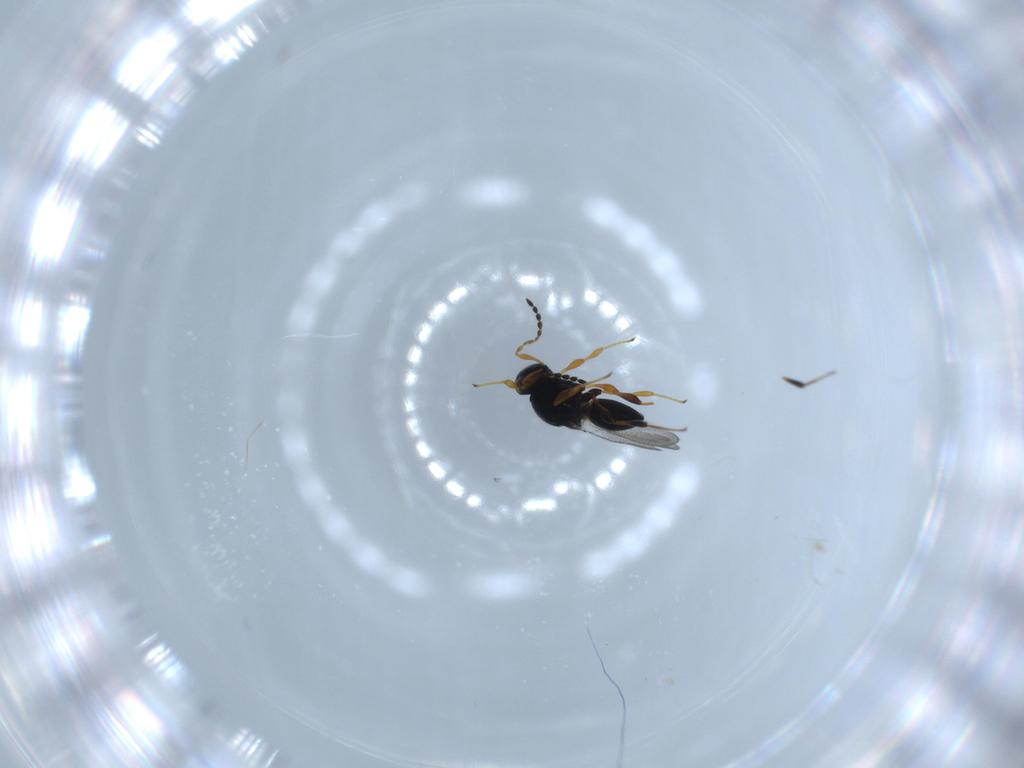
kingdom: Animalia
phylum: Arthropoda
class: Insecta
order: Hymenoptera
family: Platygastridae
